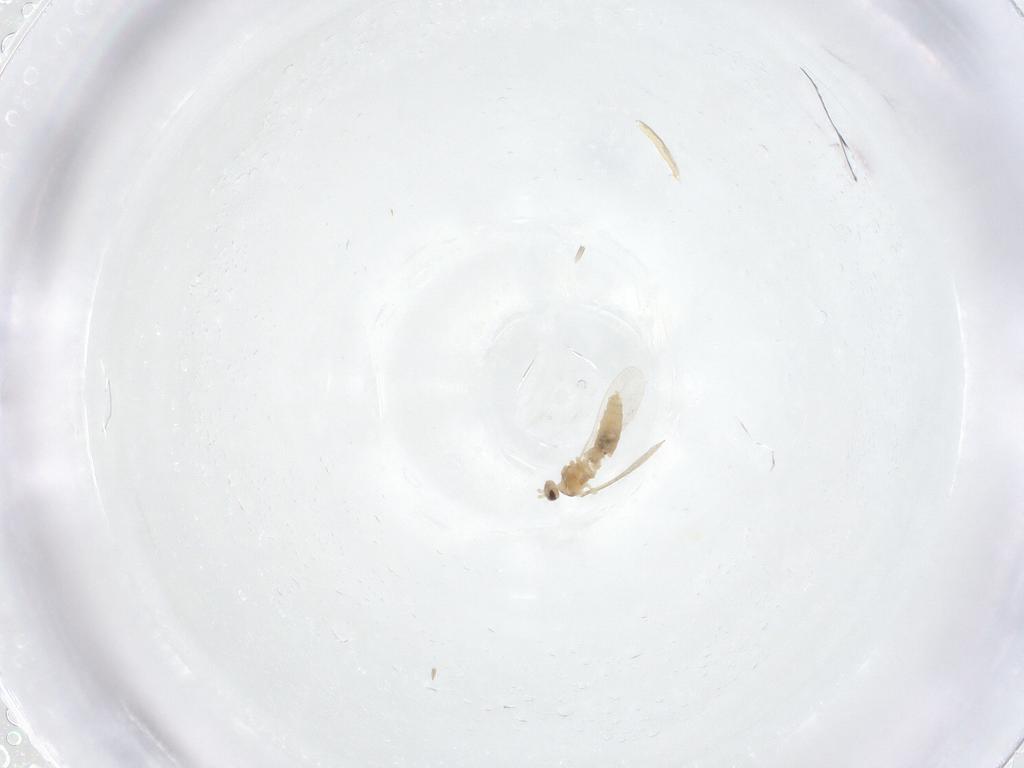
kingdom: Animalia
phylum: Arthropoda
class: Insecta
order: Diptera
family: Cecidomyiidae
